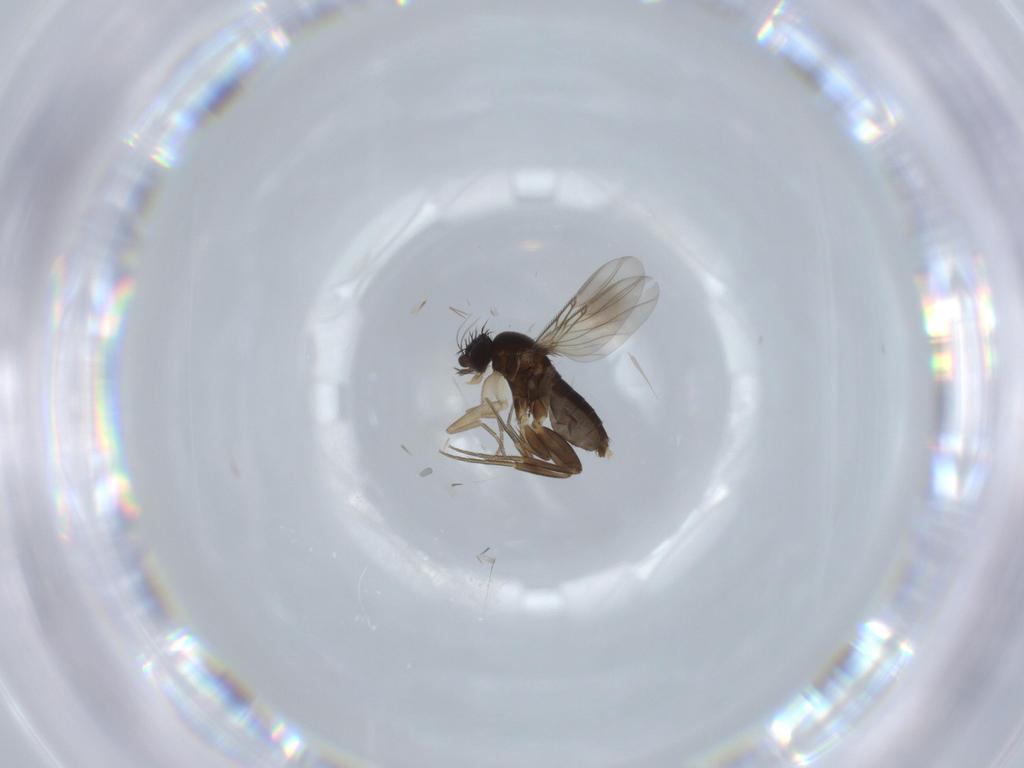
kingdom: Animalia
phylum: Arthropoda
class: Insecta
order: Diptera
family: Phoridae
